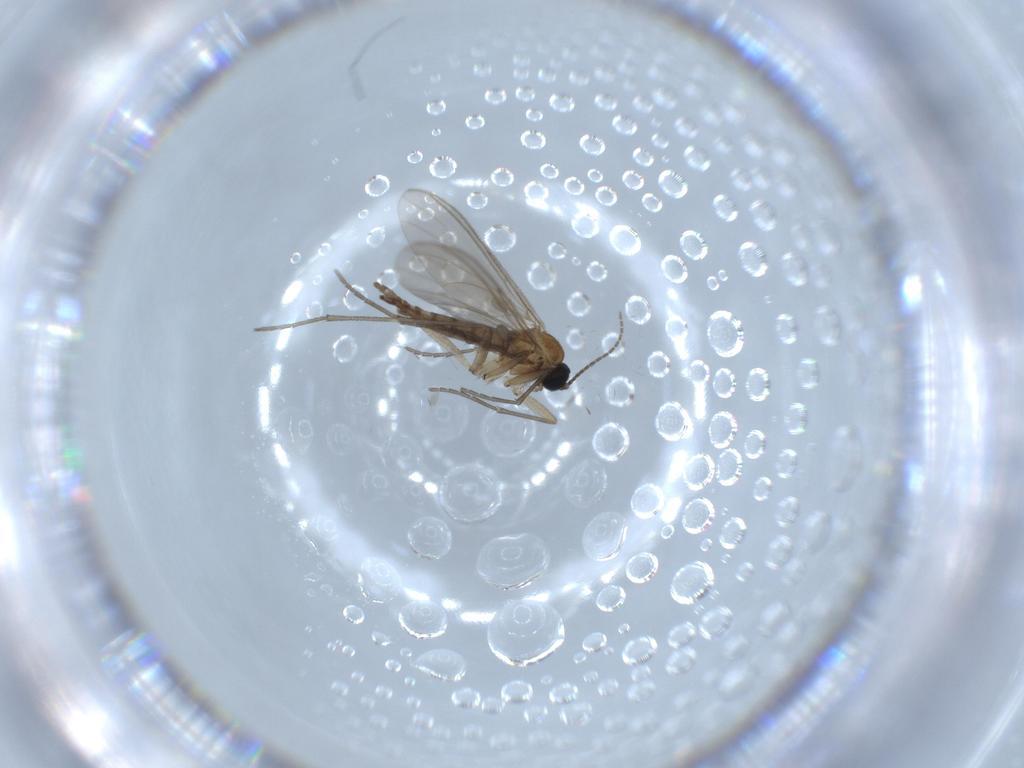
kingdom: Animalia
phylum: Arthropoda
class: Insecta
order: Diptera
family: Sciaridae
